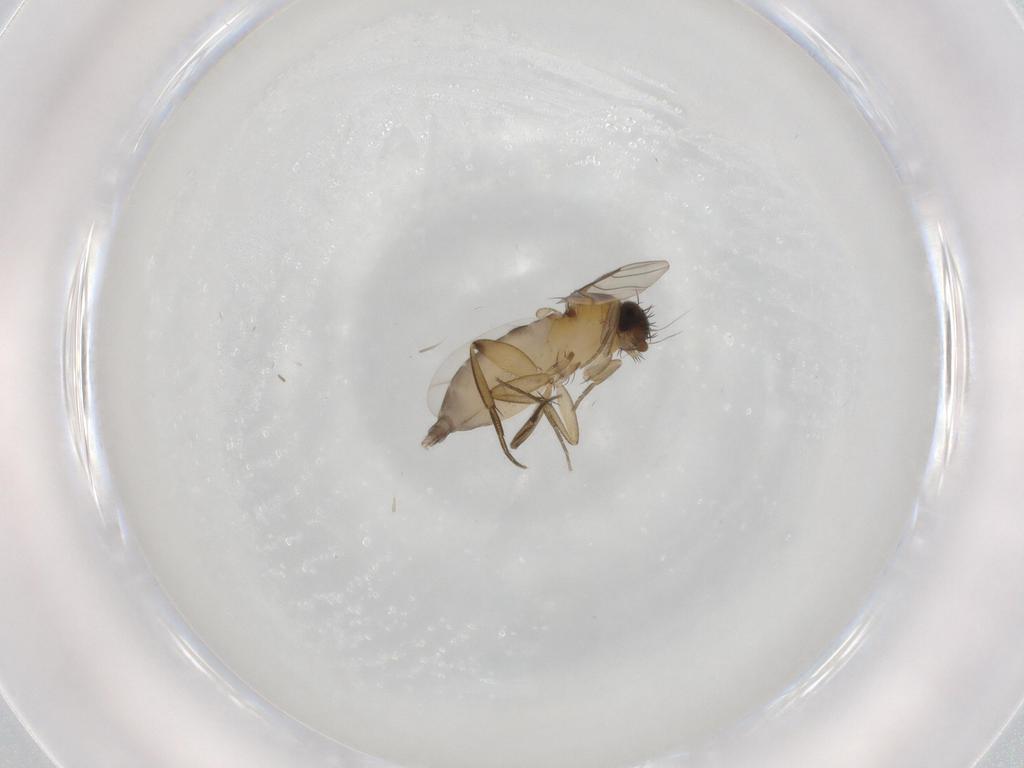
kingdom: Animalia
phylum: Arthropoda
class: Insecta
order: Diptera
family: Phoridae
